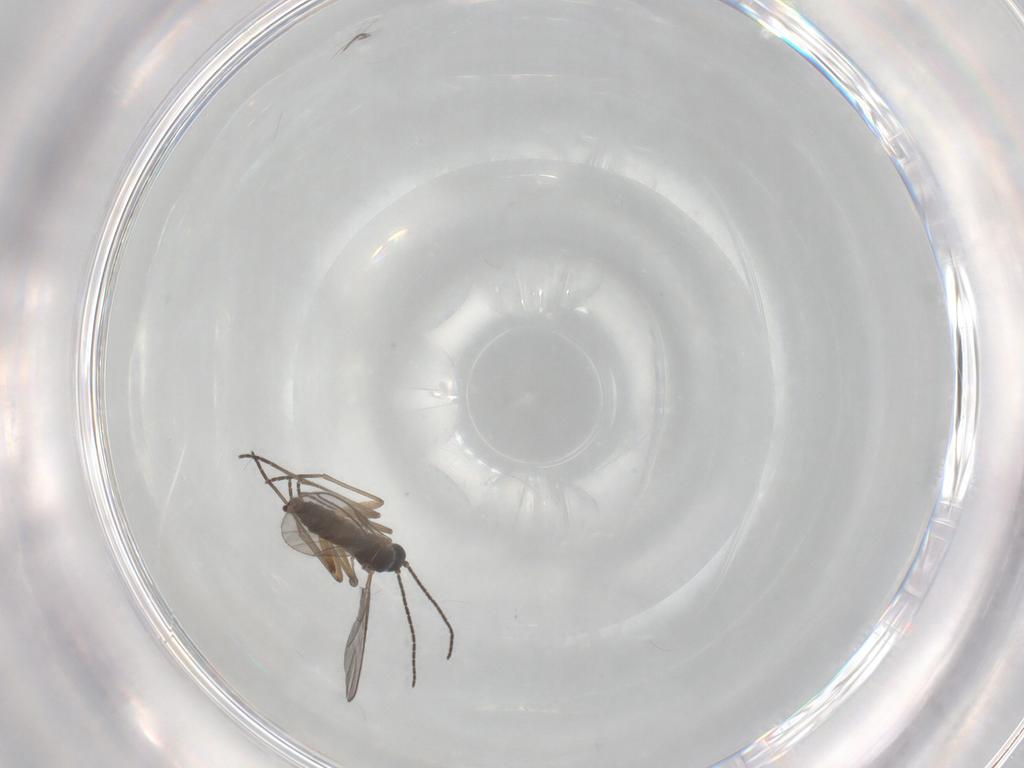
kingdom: Animalia
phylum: Arthropoda
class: Insecta
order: Diptera
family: Sciaridae
